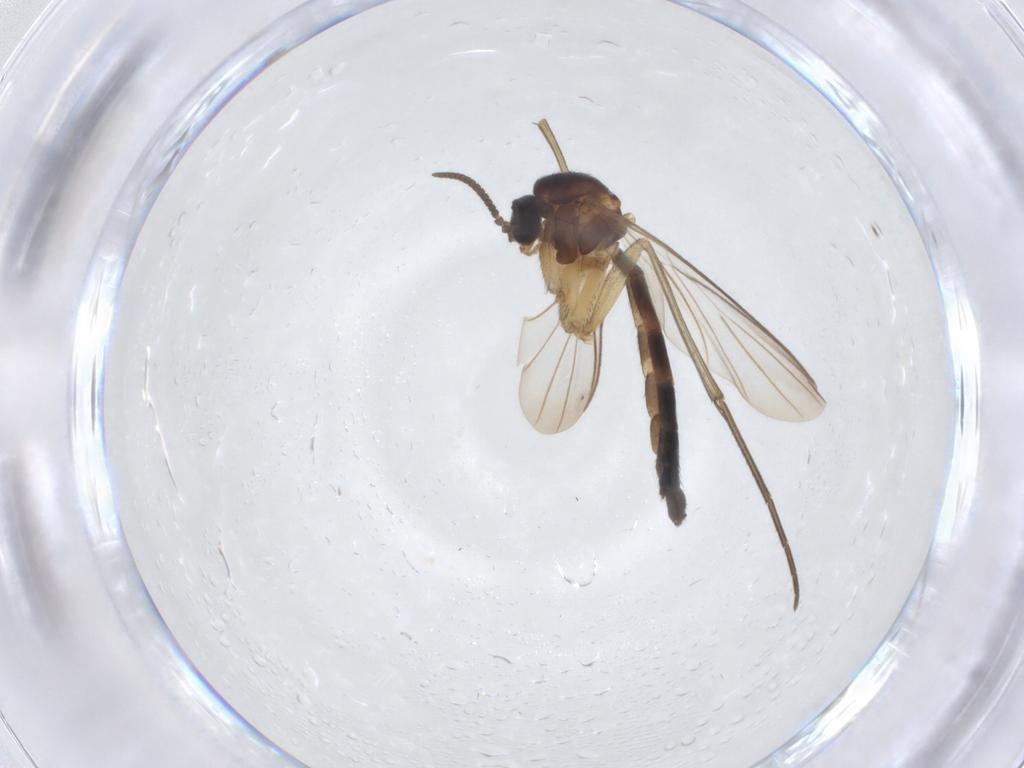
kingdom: Animalia
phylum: Arthropoda
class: Insecta
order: Diptera
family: Keroplatidae
